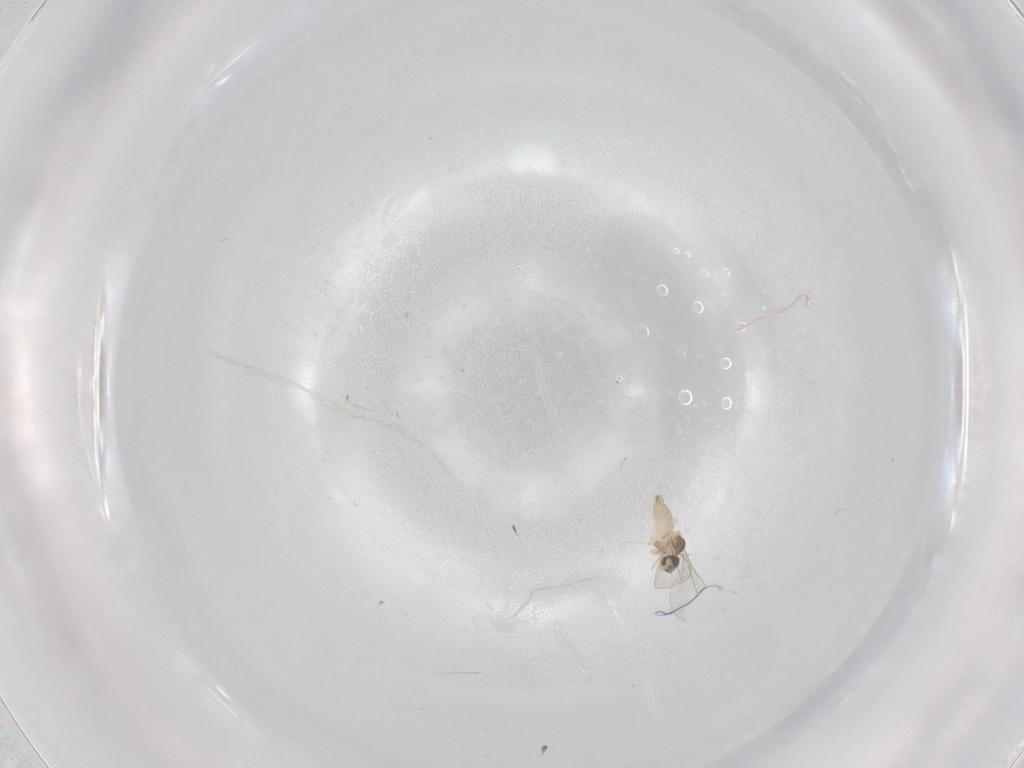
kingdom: Animalia
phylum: Arthropoda
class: Insecta
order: Diptera
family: Cecidomyiidae
